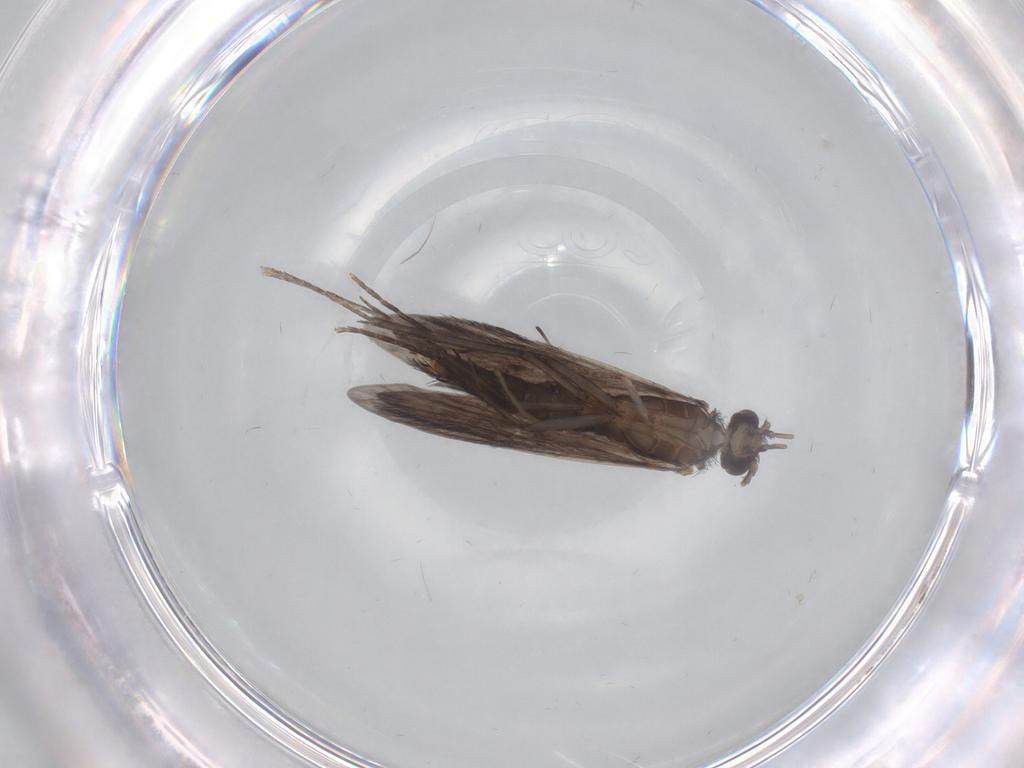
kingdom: Animalia
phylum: Arthropoda
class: Insecta
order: Trichoptera
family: Xiphocentronidae
